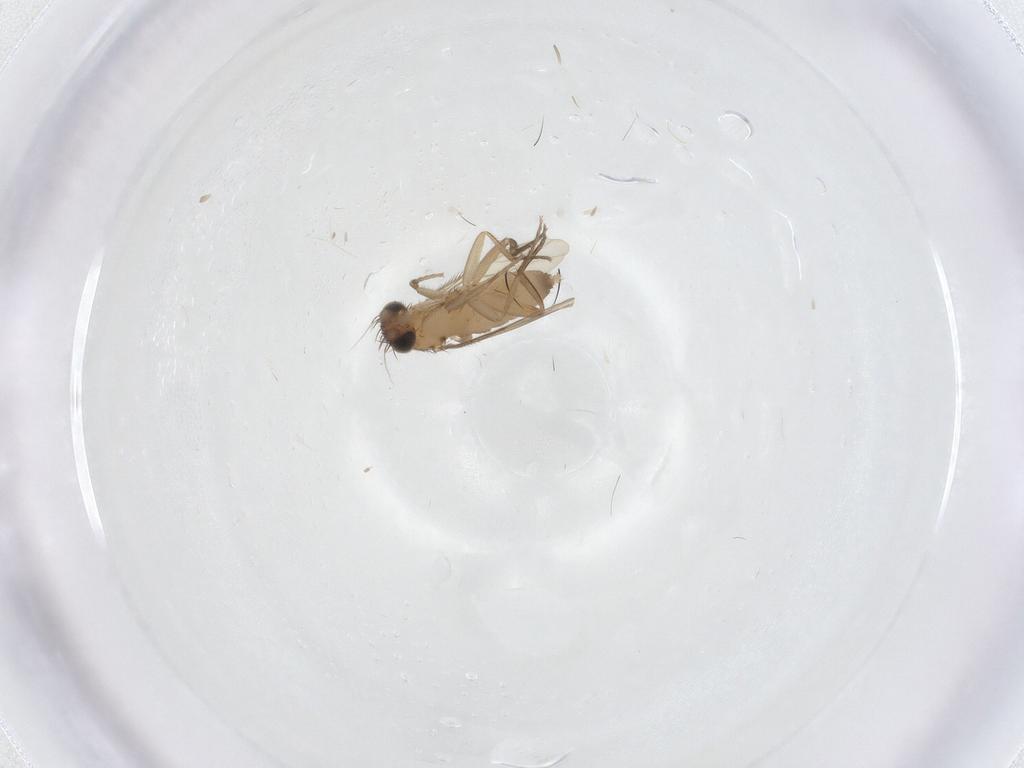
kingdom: Animalia
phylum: Arthropoda
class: Insecta
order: Diptera
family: Phoridae
